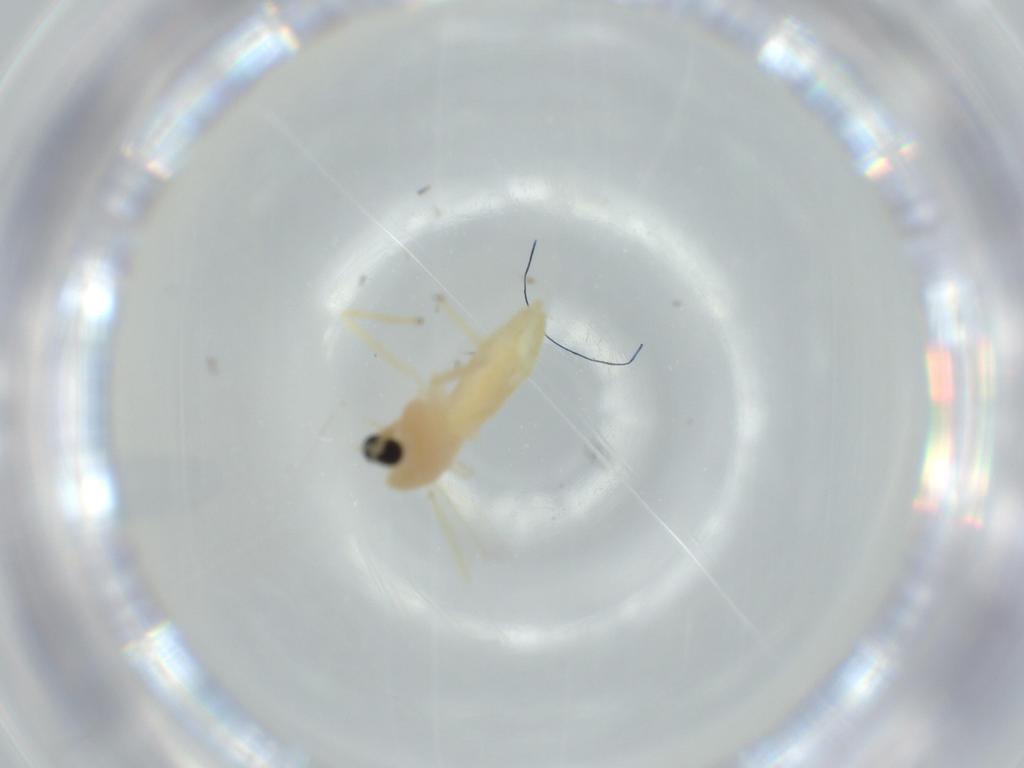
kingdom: Animalia
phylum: Arthropoda
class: Insecta
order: Diptera
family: Chironomidae
